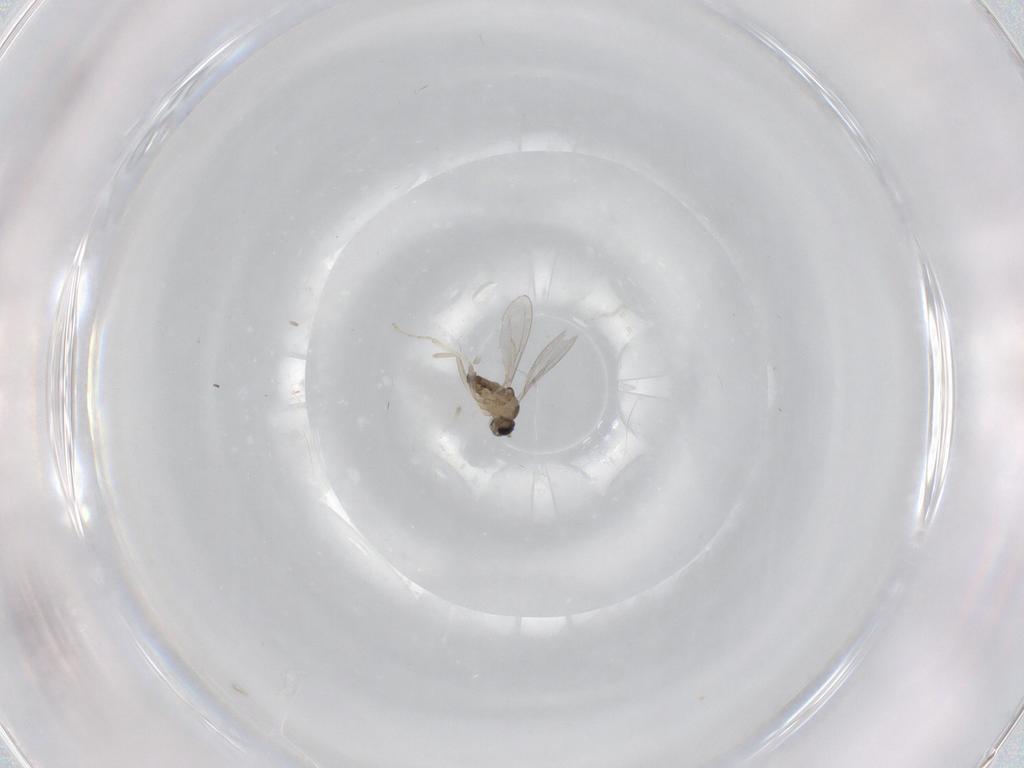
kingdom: Animalia
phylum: Arthropoda
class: Insecta
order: Diptera
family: Cecidomyiidae
